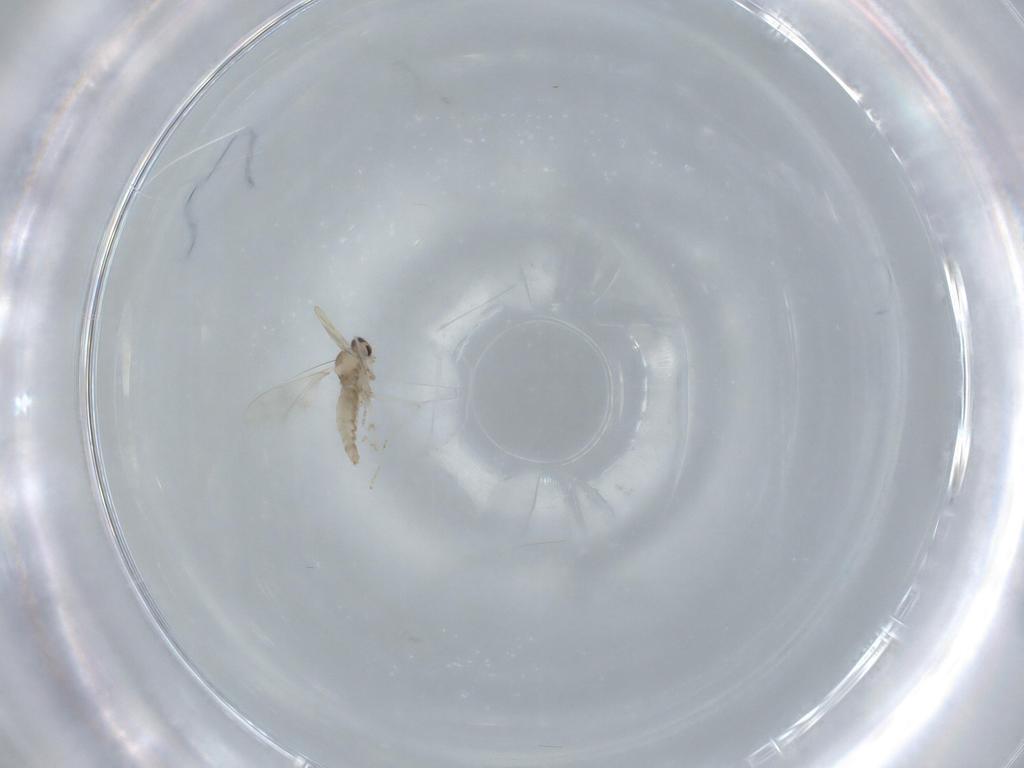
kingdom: Animalia
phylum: Arthropoda
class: Insecta
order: Diptera
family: Cecidomyiidae
